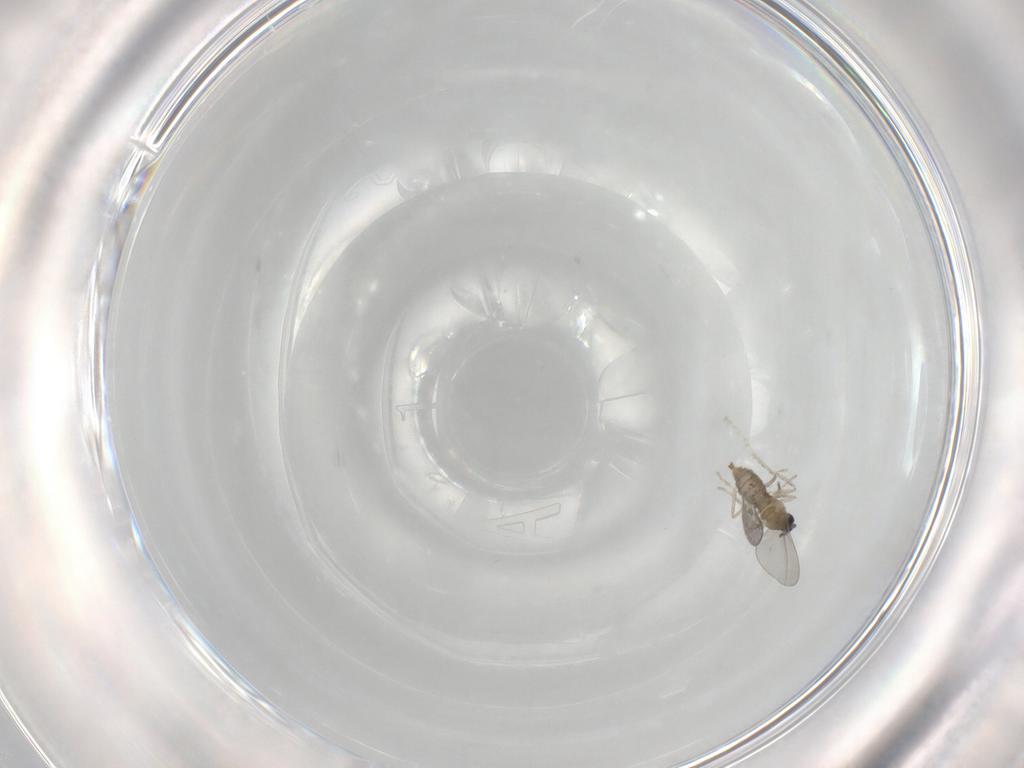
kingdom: Animalia
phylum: Arthropoda
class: Insecta
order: Diptera
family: Cecidomyiidae
